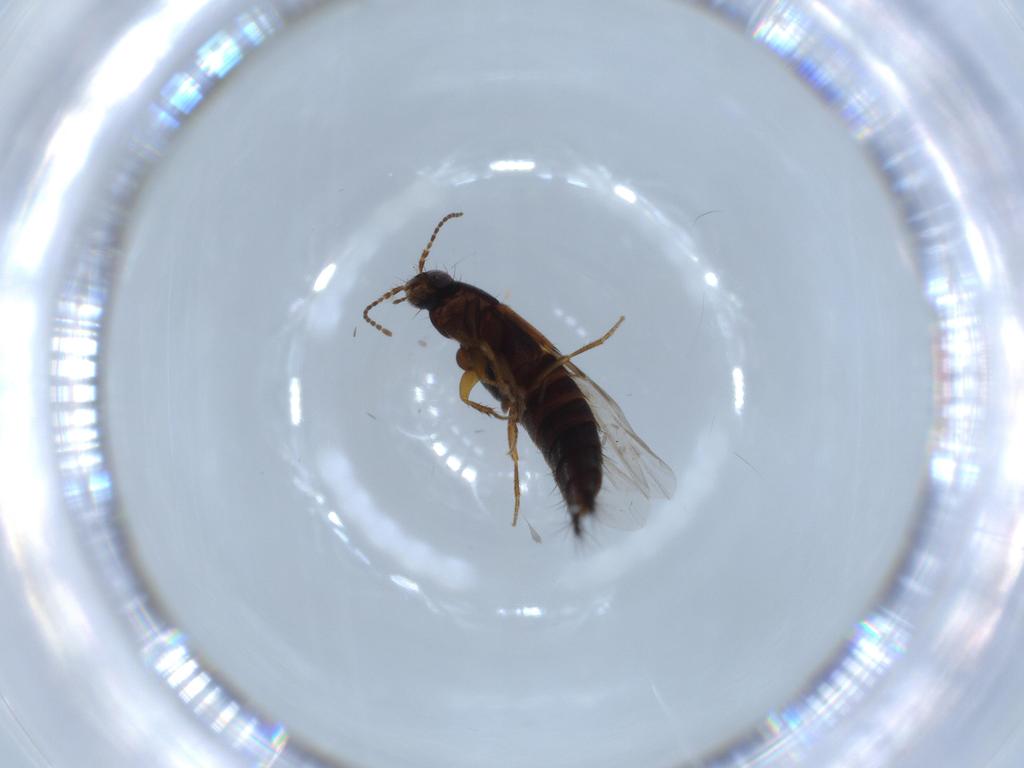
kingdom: Animalia
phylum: Arthropoda
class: Insecta
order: Coleoptera
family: Staphylinidae
